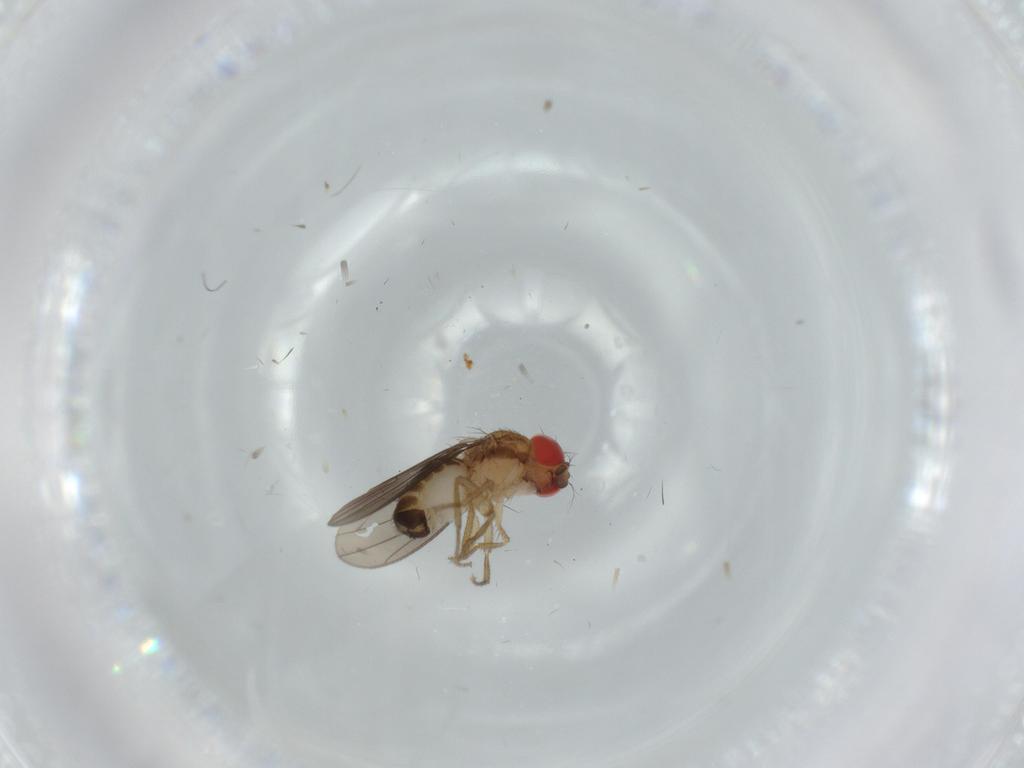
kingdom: Animalia
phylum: Arthropoda
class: Insecta
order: Diptera
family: Drosophilidae
